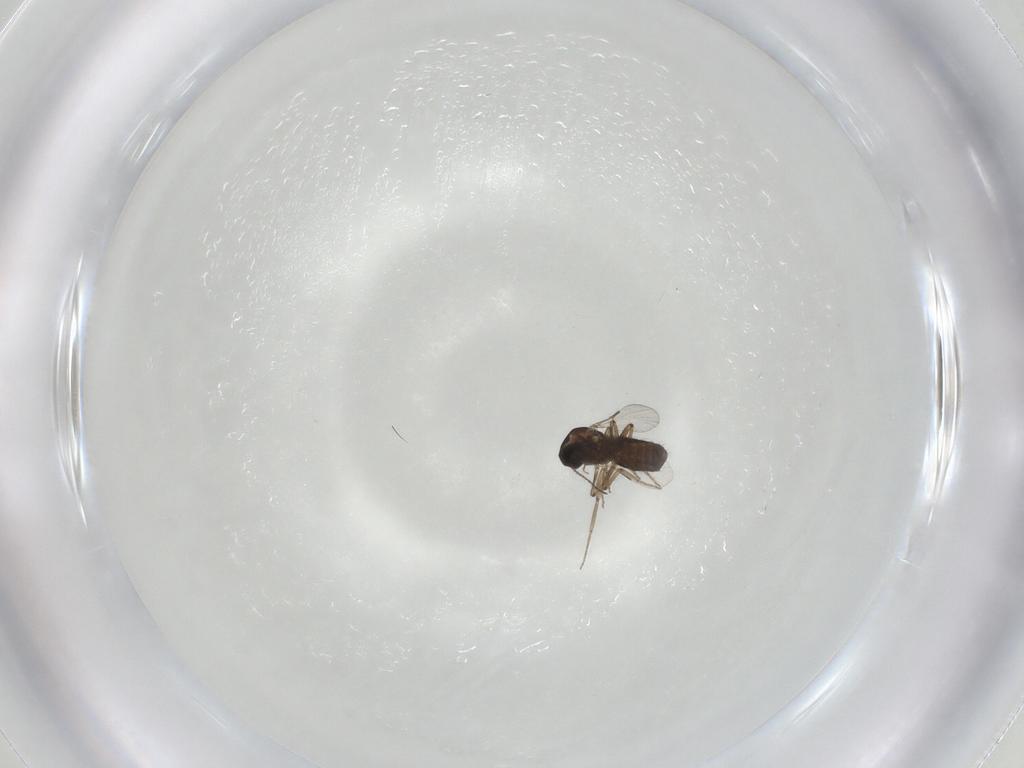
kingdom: Animalia
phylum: Arthropoda
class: Insecta
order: Diptera
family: Ceratopogonidae
